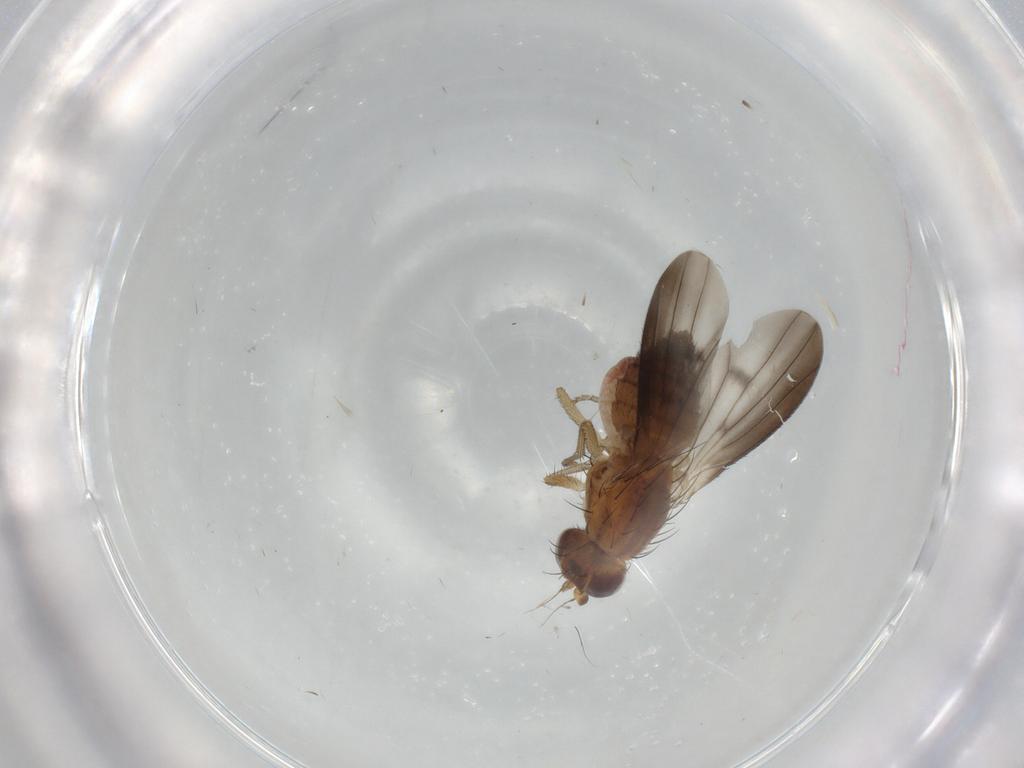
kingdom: Animalia
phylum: Arthropoda
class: Insecta
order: Diptera
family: Heleomyzidae
